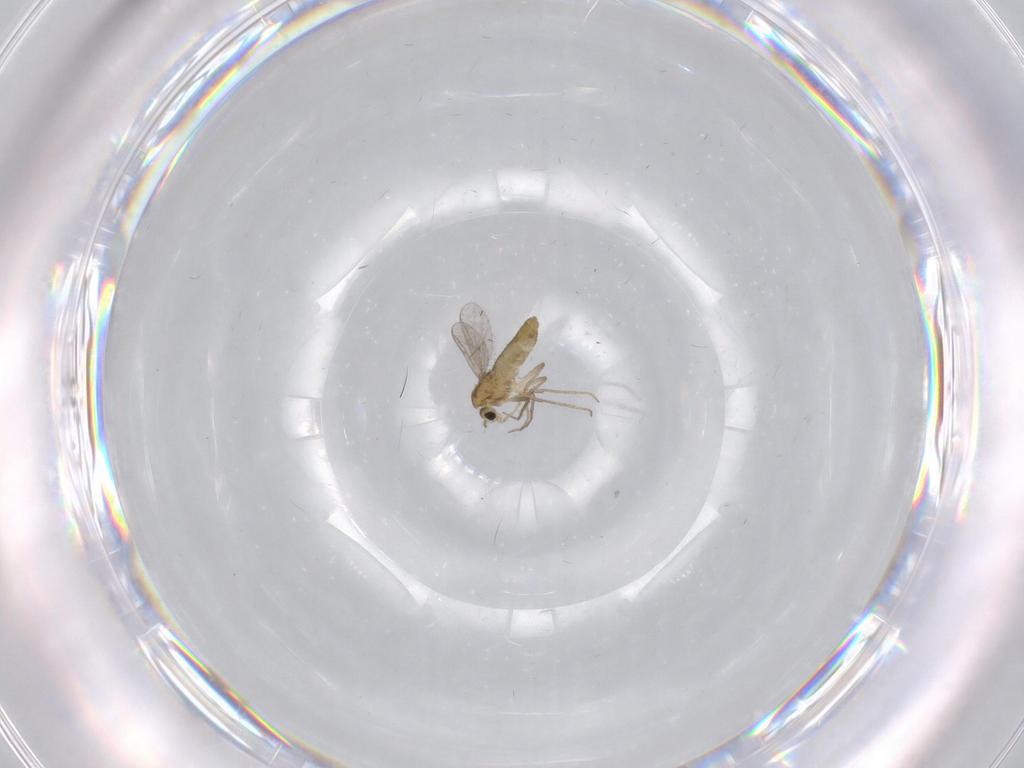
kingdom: Animalia
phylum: Arthropoda
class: Insecta
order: Diptera
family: Chironomidae
